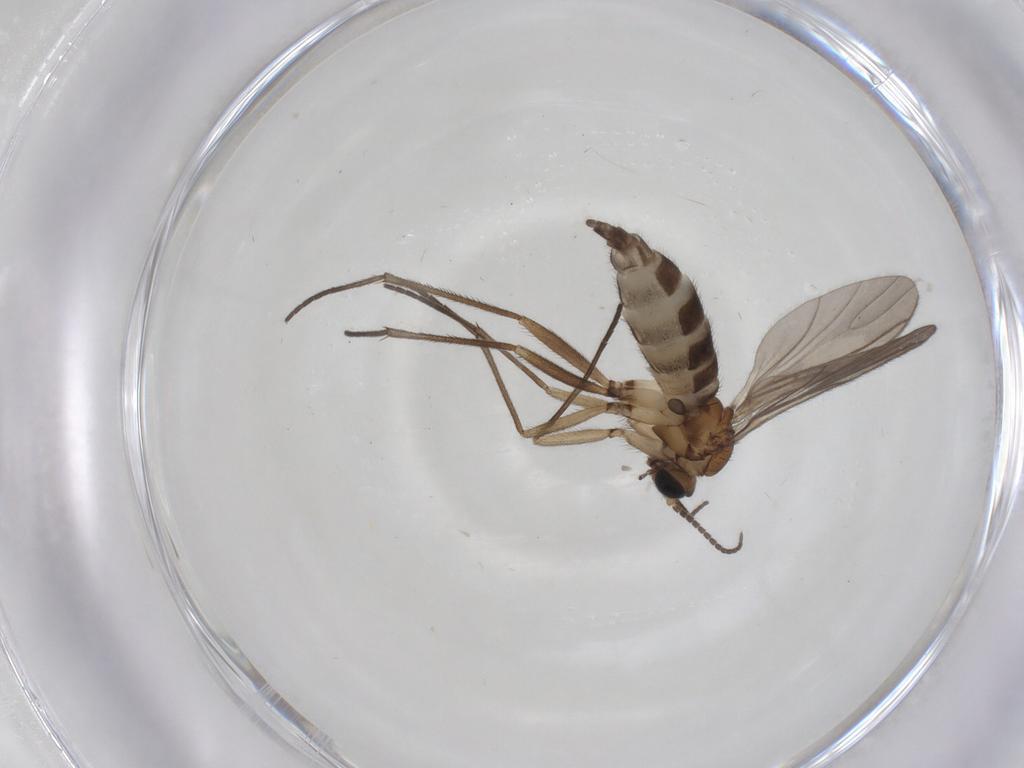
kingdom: Animalia
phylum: Arthropoda
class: Insecta
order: Diptera
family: Sciaridae
